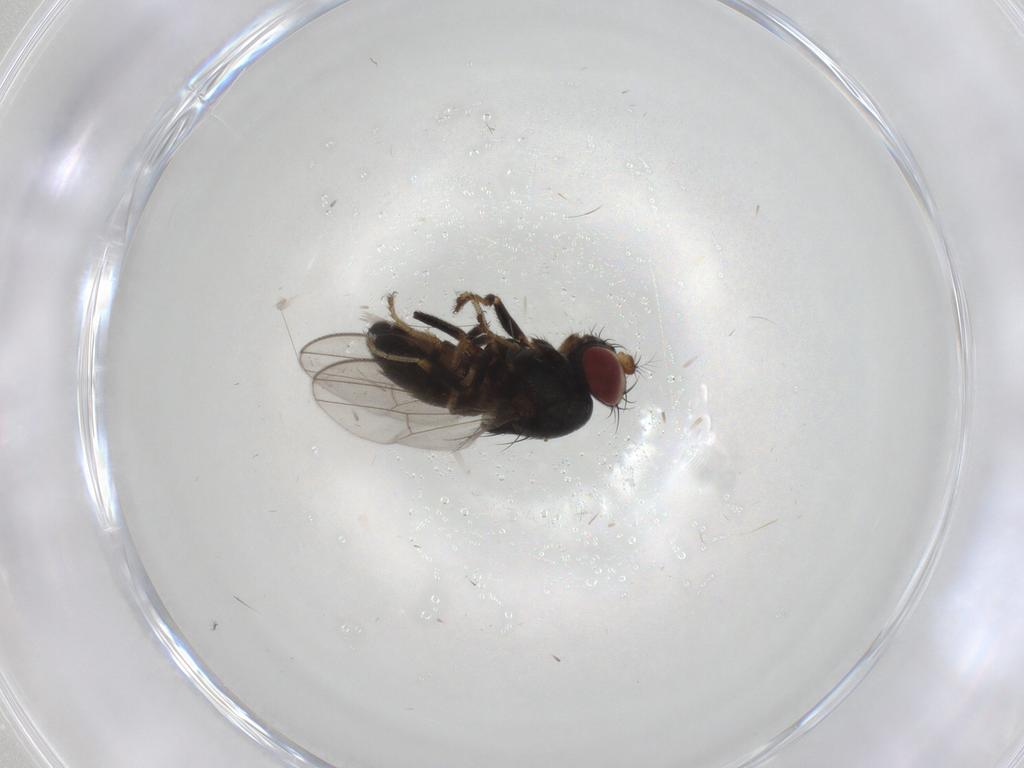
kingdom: Animalia
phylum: Arthropoda
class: Insecta
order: Diptera
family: Ephydridae
